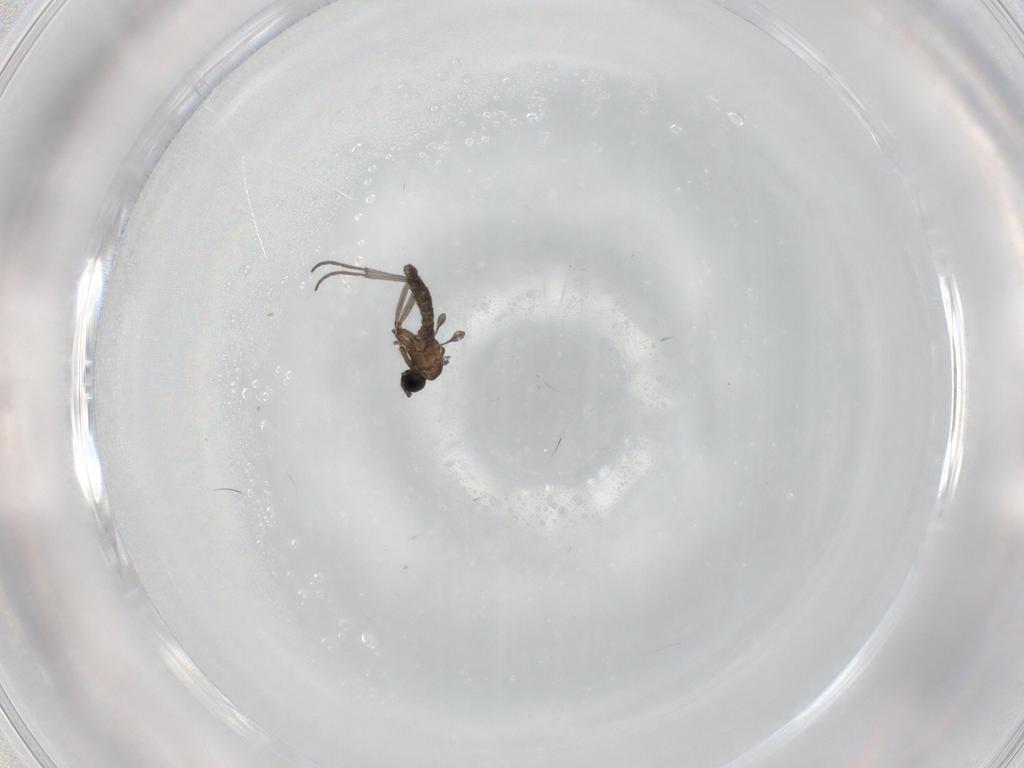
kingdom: Animalia
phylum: Arthropoda
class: Insecta
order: Diptera
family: Sciaridae
